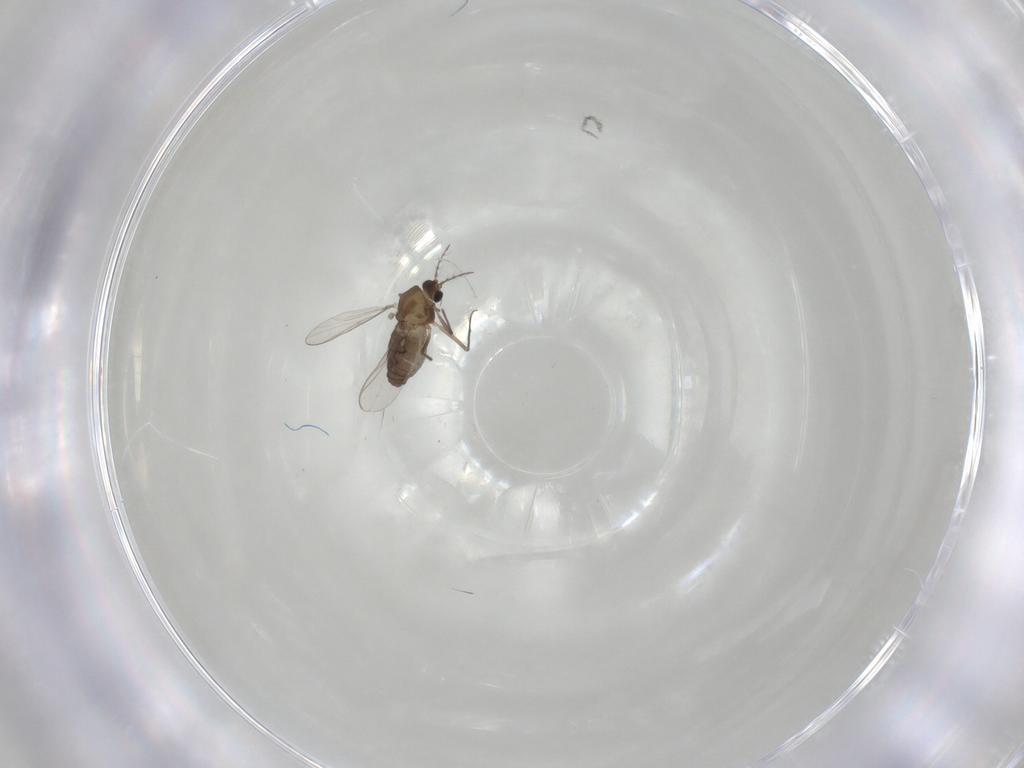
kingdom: Animalia
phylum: Arthropoda
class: Insecta
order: Diptera
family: Chironomidae
